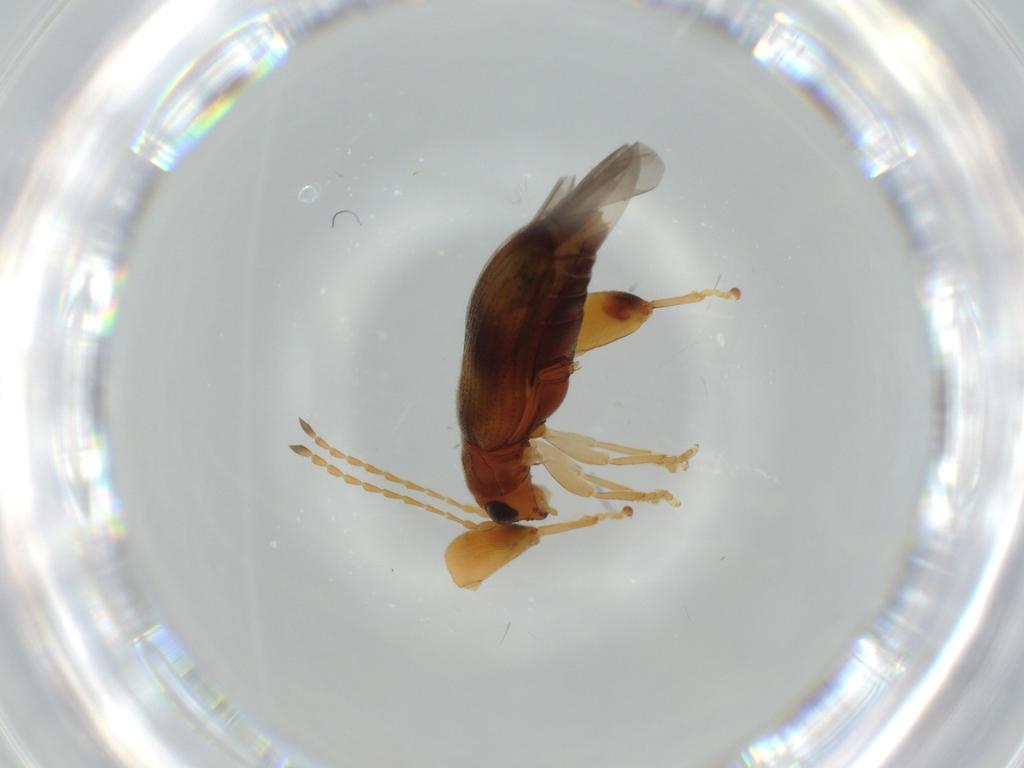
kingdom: Animalia
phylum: Arthropoda
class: Insecta
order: Coleoptera
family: Chrysomelidae
